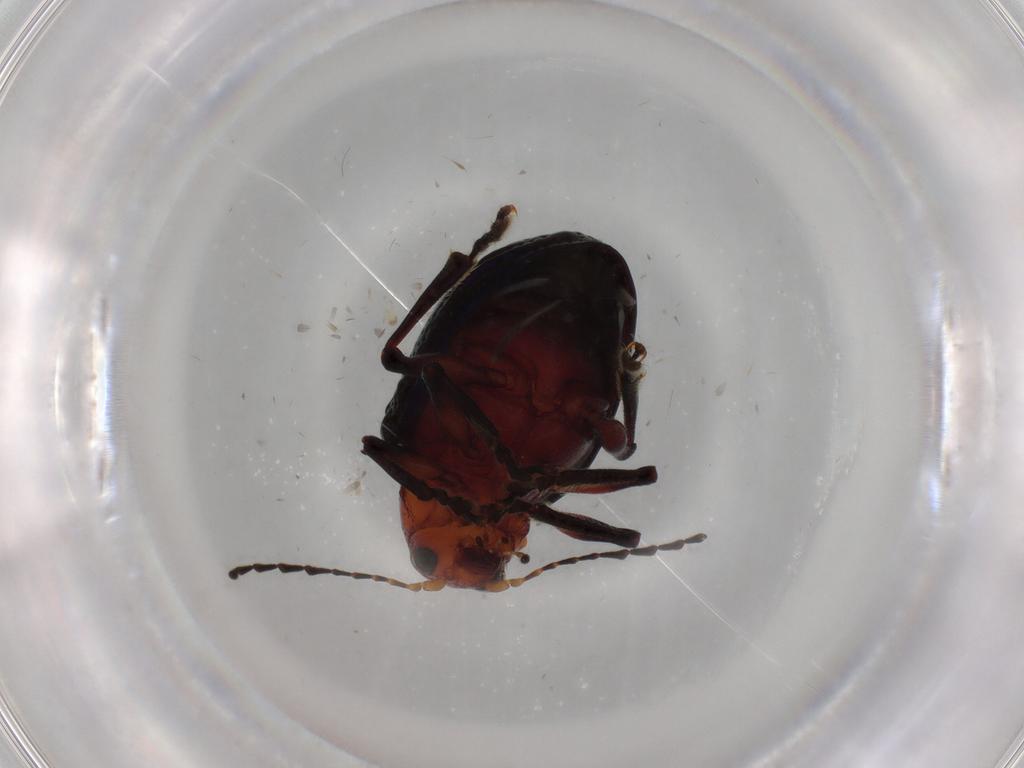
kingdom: Animalia
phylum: Arthropoda
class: Insecta
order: Coleoptera
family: Chrysomelidae
